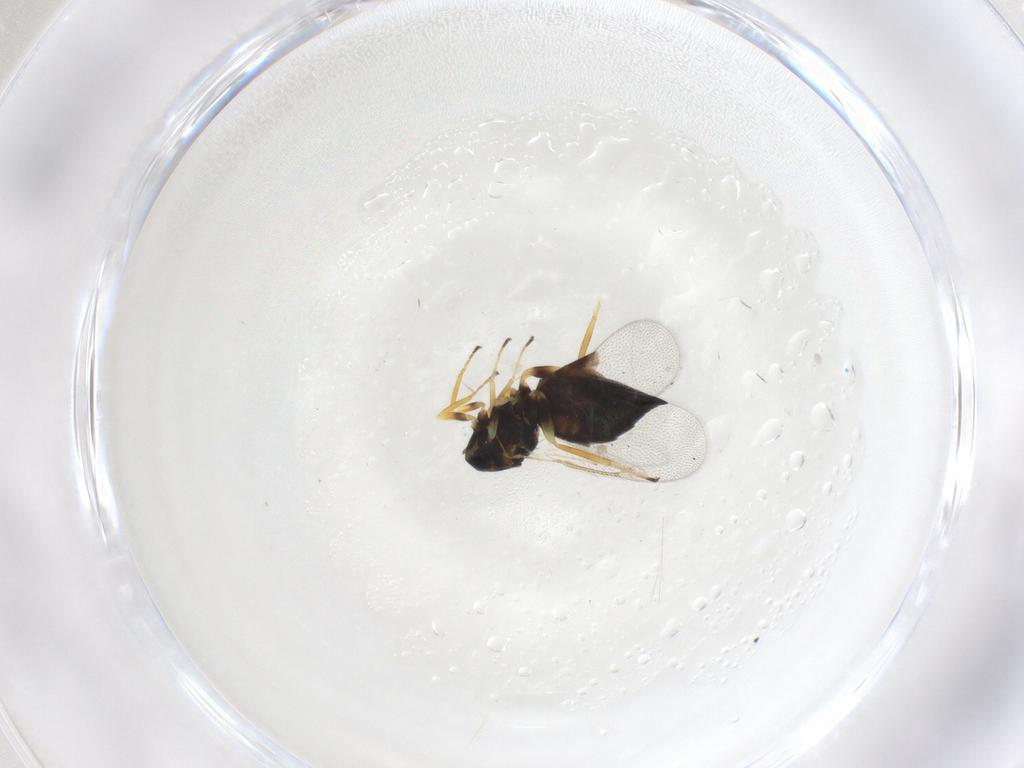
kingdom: Animalia
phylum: Arthropoda
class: Insecta
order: Hymenoptera
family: Eulophidae
